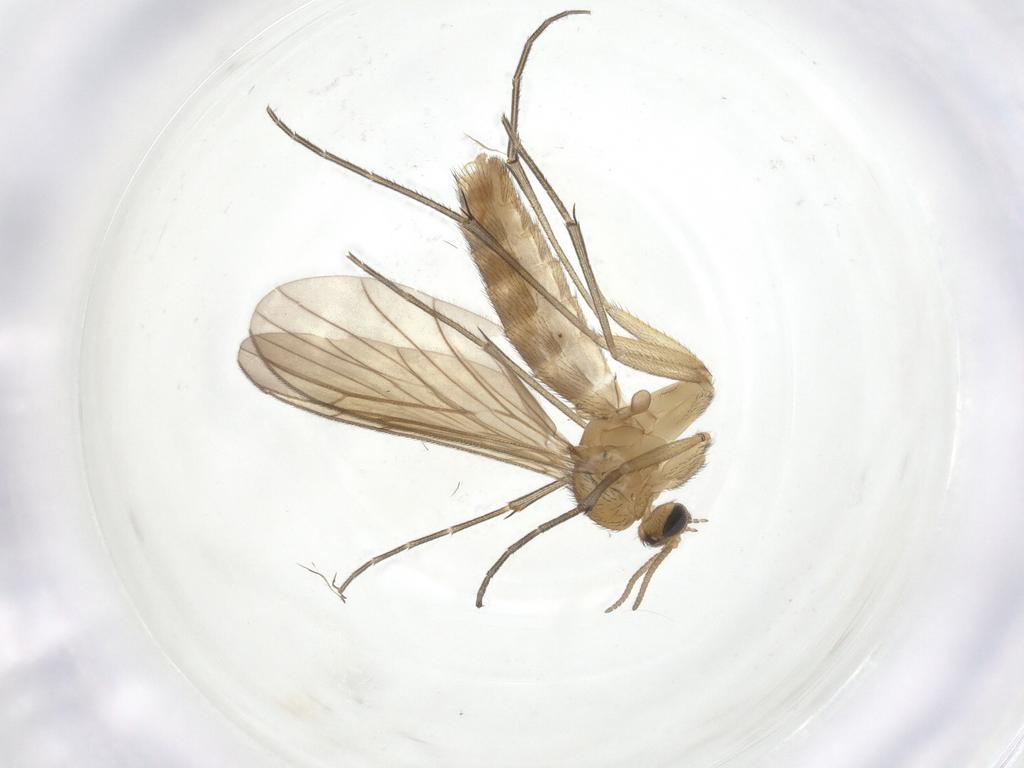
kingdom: Animalia
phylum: Arthropoda
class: Insecta
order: Diptera
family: Keroplatidae
